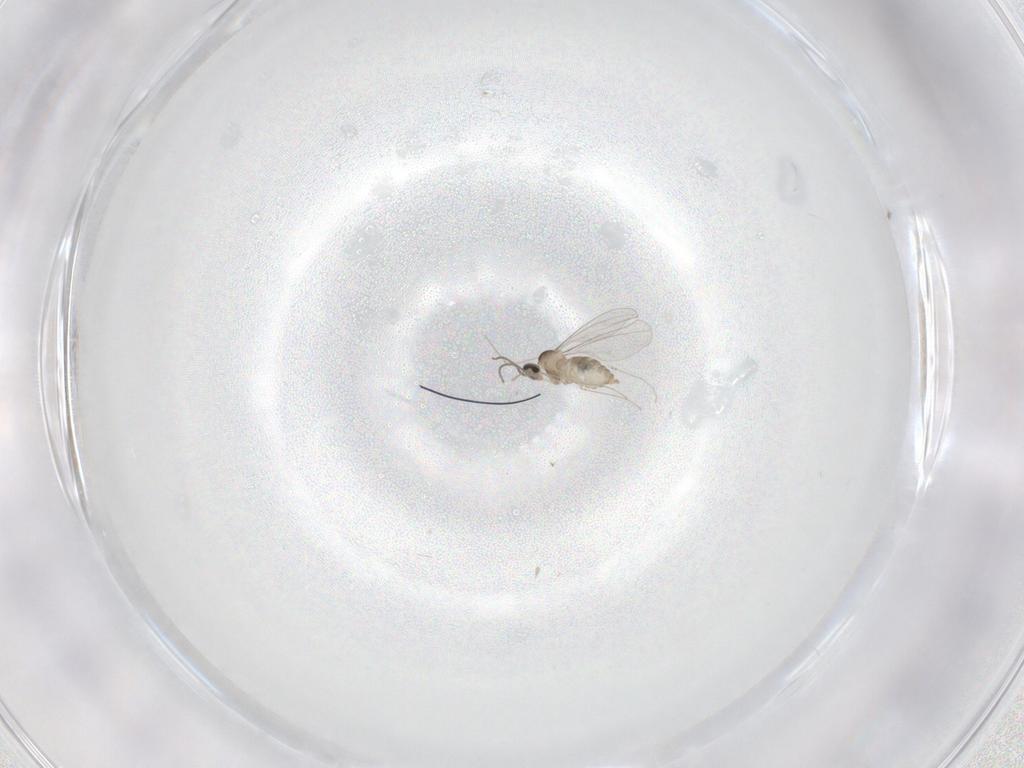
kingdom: Animalia
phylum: Arthropoda
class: Insecta
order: Diptera
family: Cecidomyiidae
